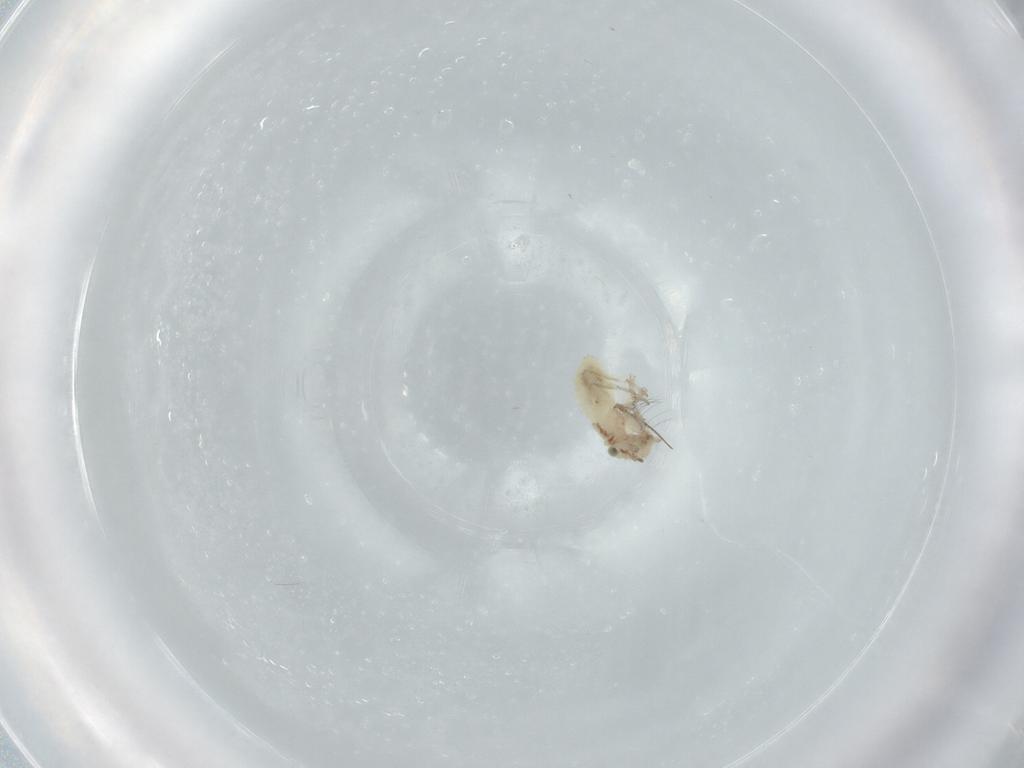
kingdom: Animalia
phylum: Arthropoda
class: Insecta
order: Psocodea
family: Lepidopsocidae
